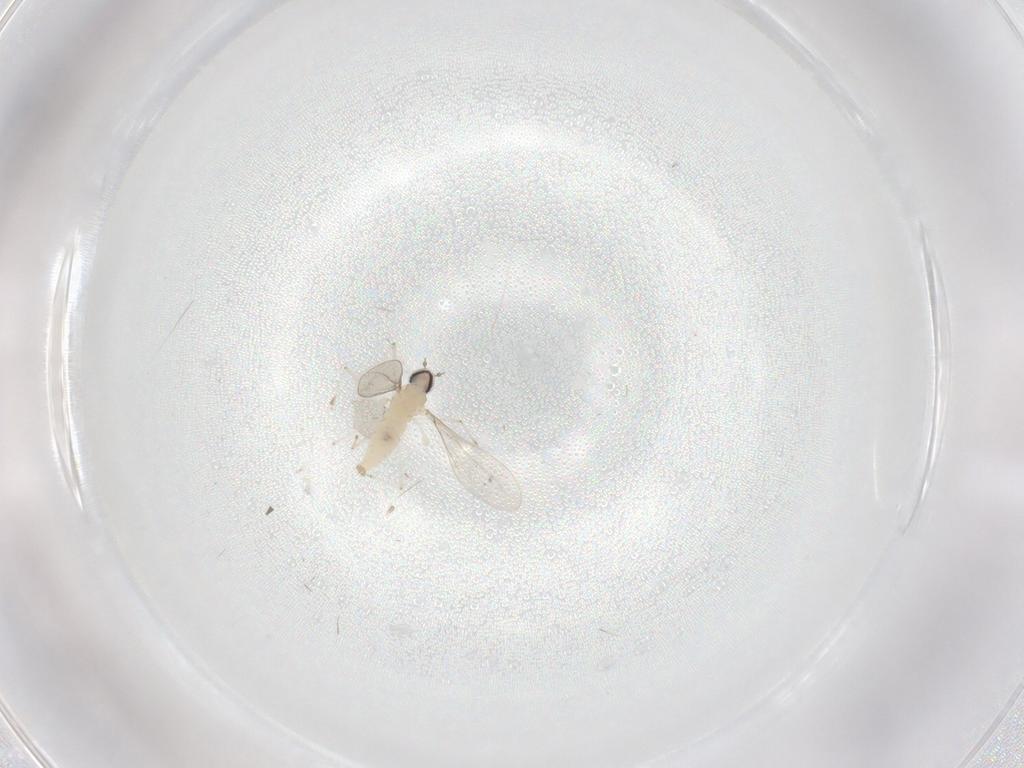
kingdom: Animalia
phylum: Arthropoda
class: Insecta
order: Diptera
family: Cecidomyiidae
